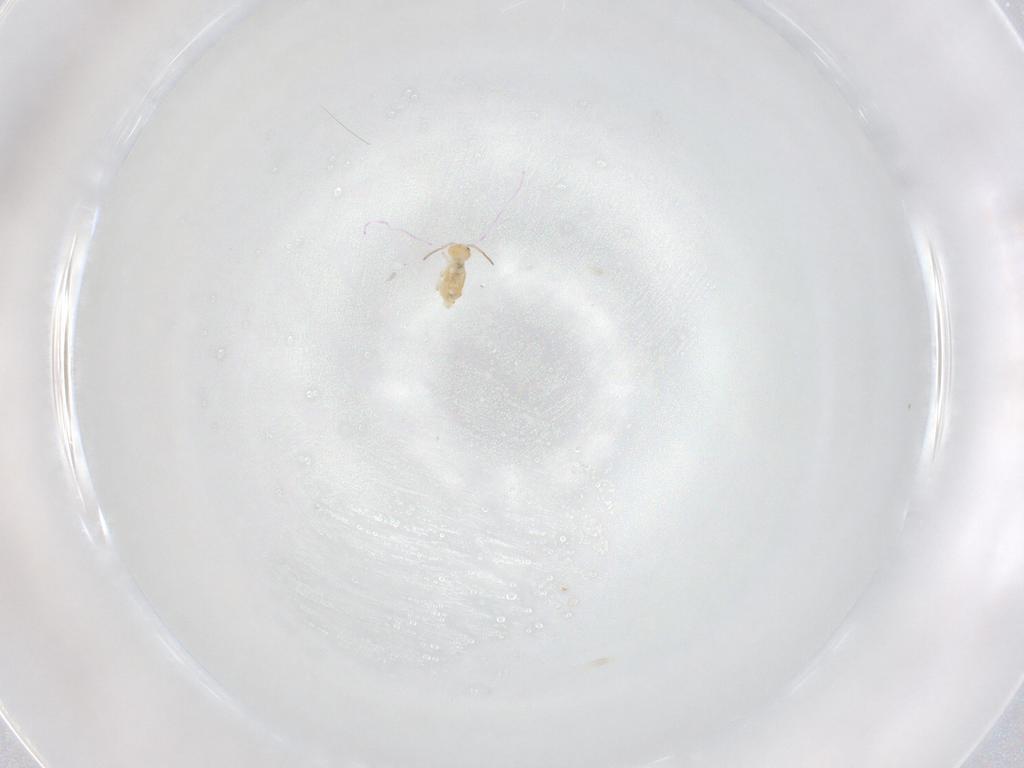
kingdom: Animalia
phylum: Arthropoda
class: Collembola
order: Symphypleona
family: Bourletiellidae
